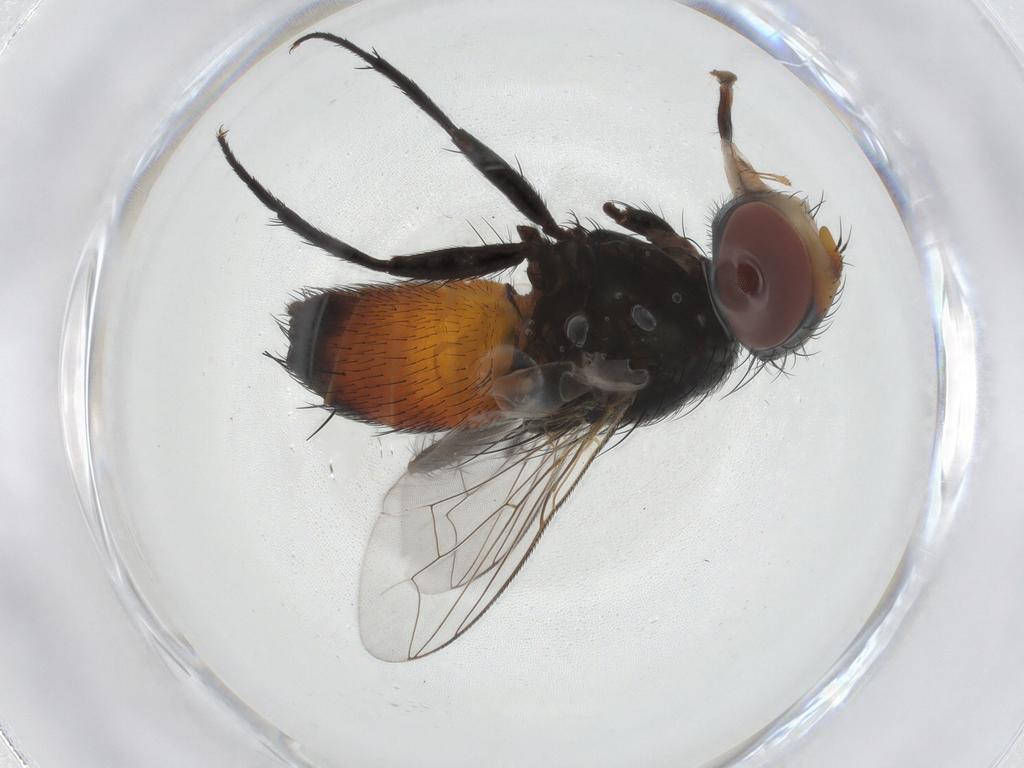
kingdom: Animalia
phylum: Arthropoda
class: Insecta
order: Diptera
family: Sarcophagidae
